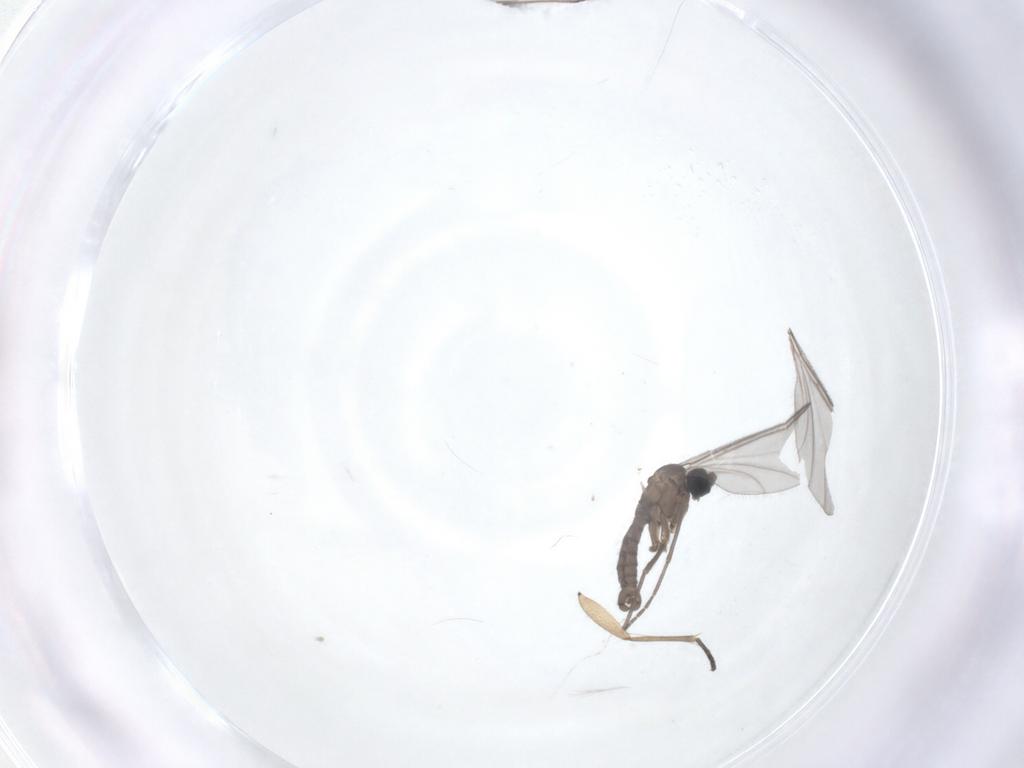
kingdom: Animalia
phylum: Arthropoda
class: Insecta
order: Diptera
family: Sciaridae
